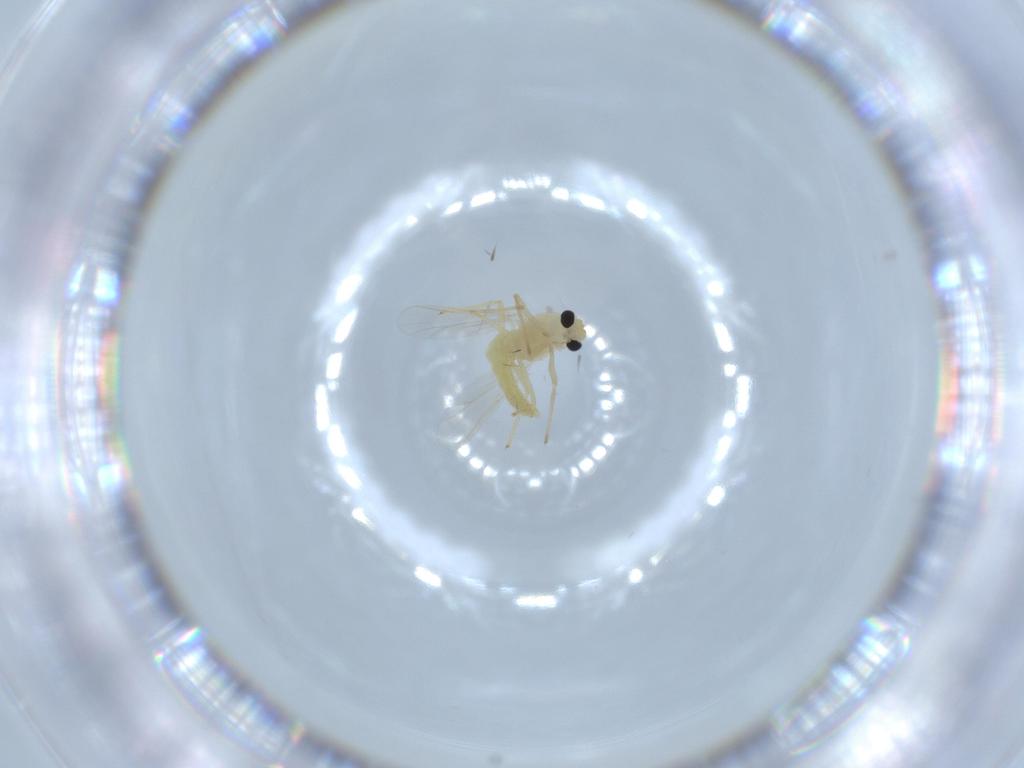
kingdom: Animalia
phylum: Arthropoda
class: Insecta
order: Diptera
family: Chironomidae
